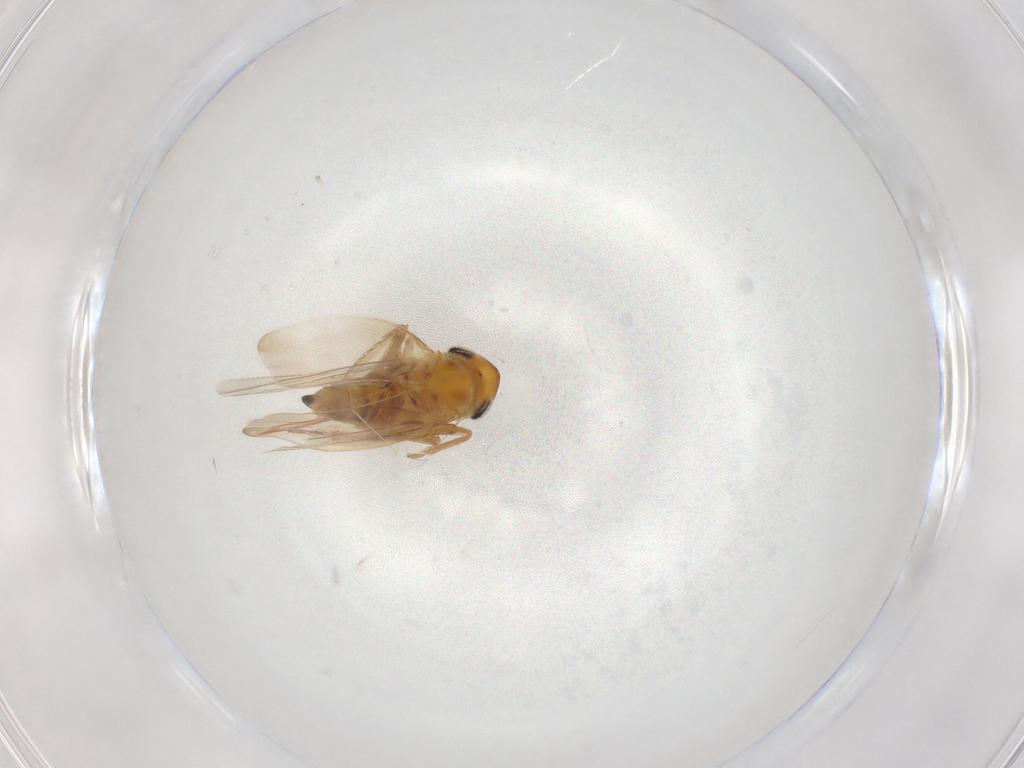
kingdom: Animalia
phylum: Arthropoda
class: Insecta
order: Hemiptera
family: Cicadellidae
